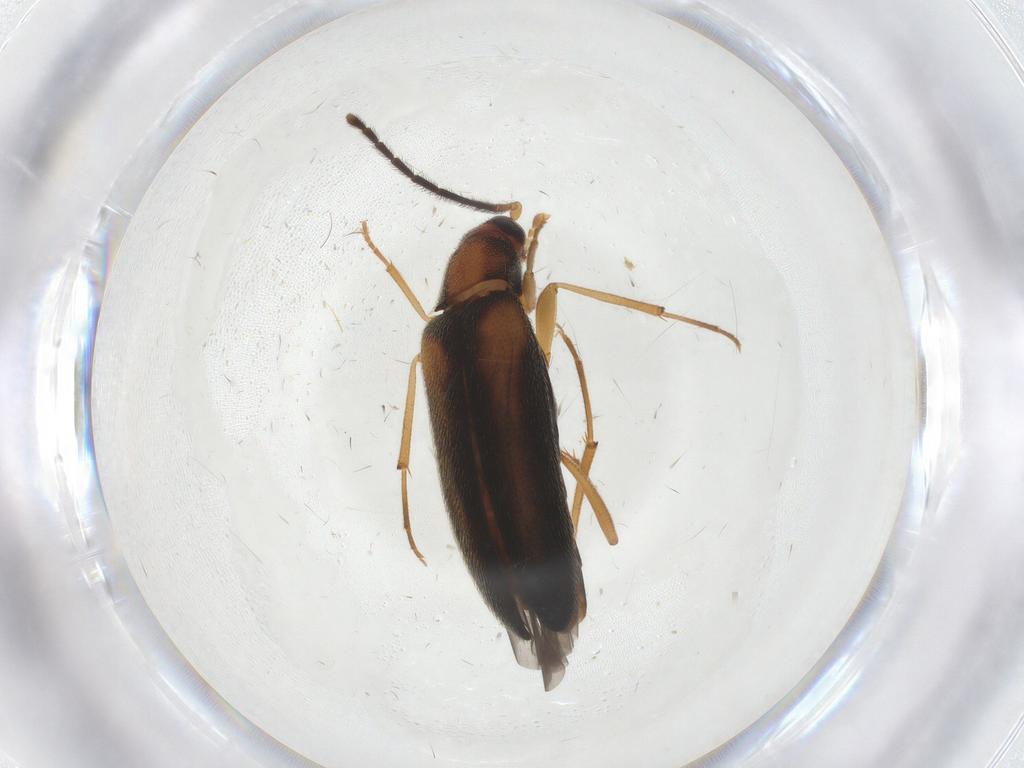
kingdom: Animalia
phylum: Arthropoda
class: Insecta
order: Coleoptera
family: Melandryidae
